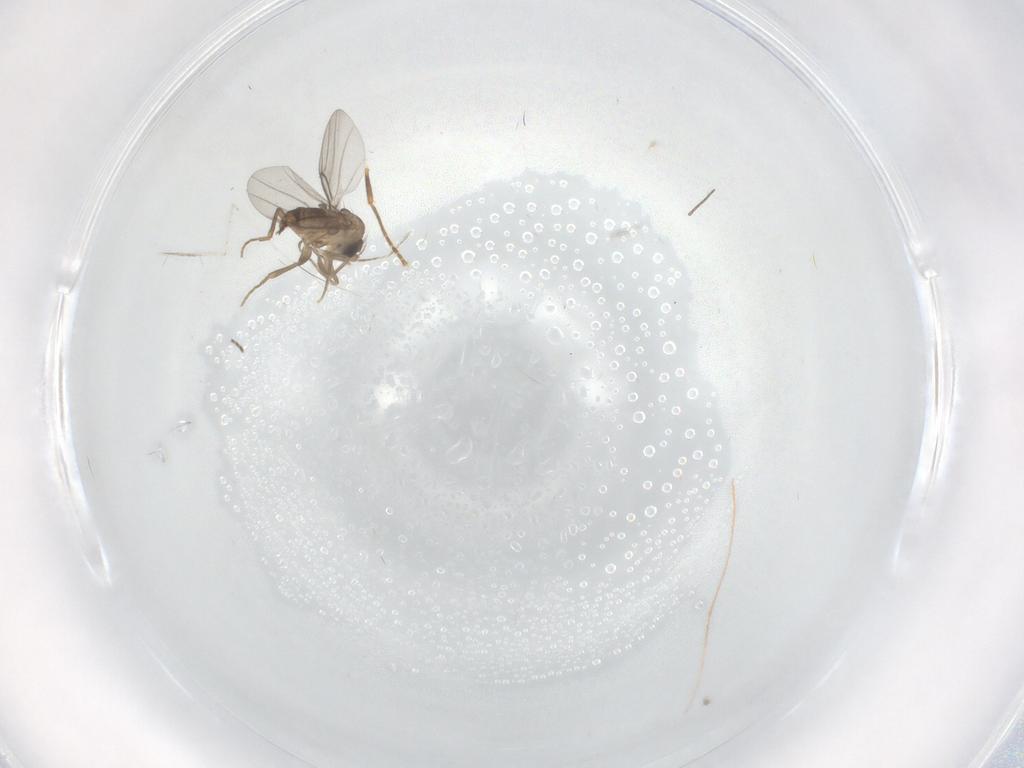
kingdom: Animalia
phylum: Arthropoda
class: Insecta
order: Diptera
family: Cecidomyiidae
